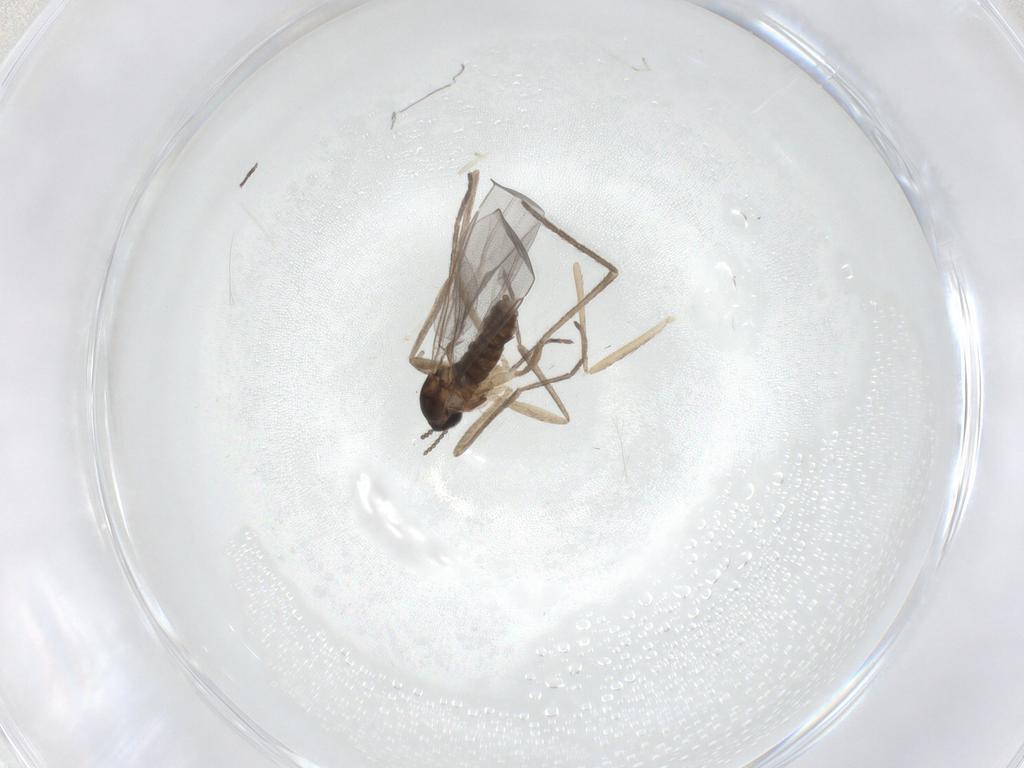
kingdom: Animalia
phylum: Arthropoda
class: Insecta
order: Diptera
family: Cecidomyiidae
